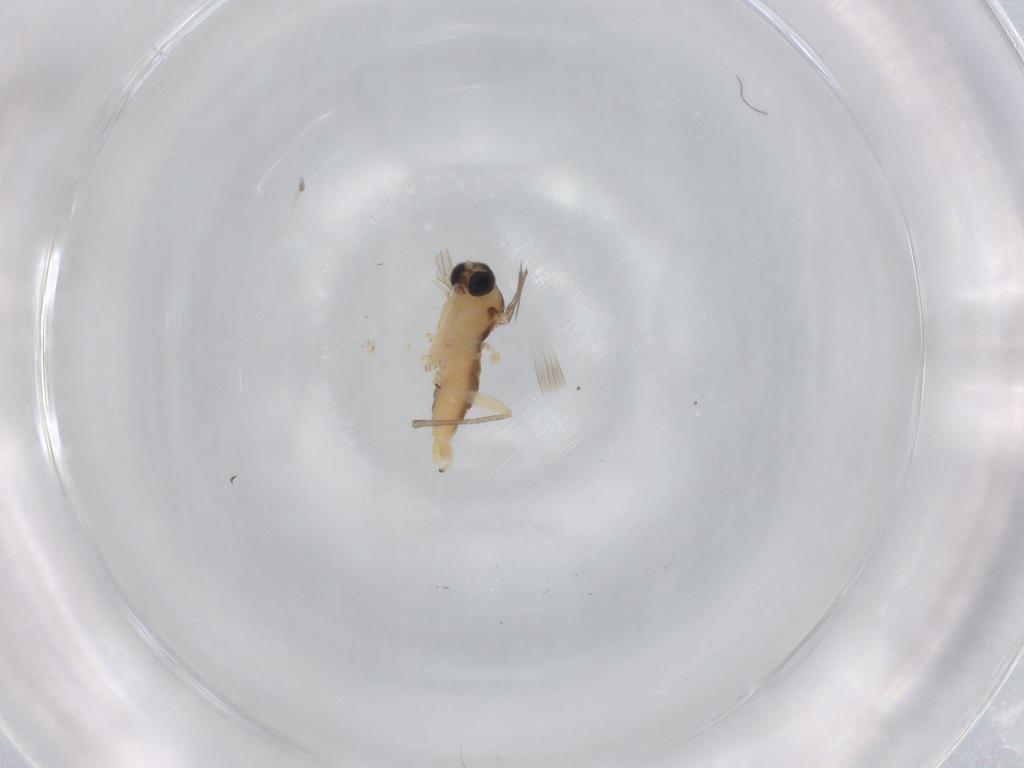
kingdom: Animalia
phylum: Arthropoda
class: Insecta
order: Diptera
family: Sciaridae
